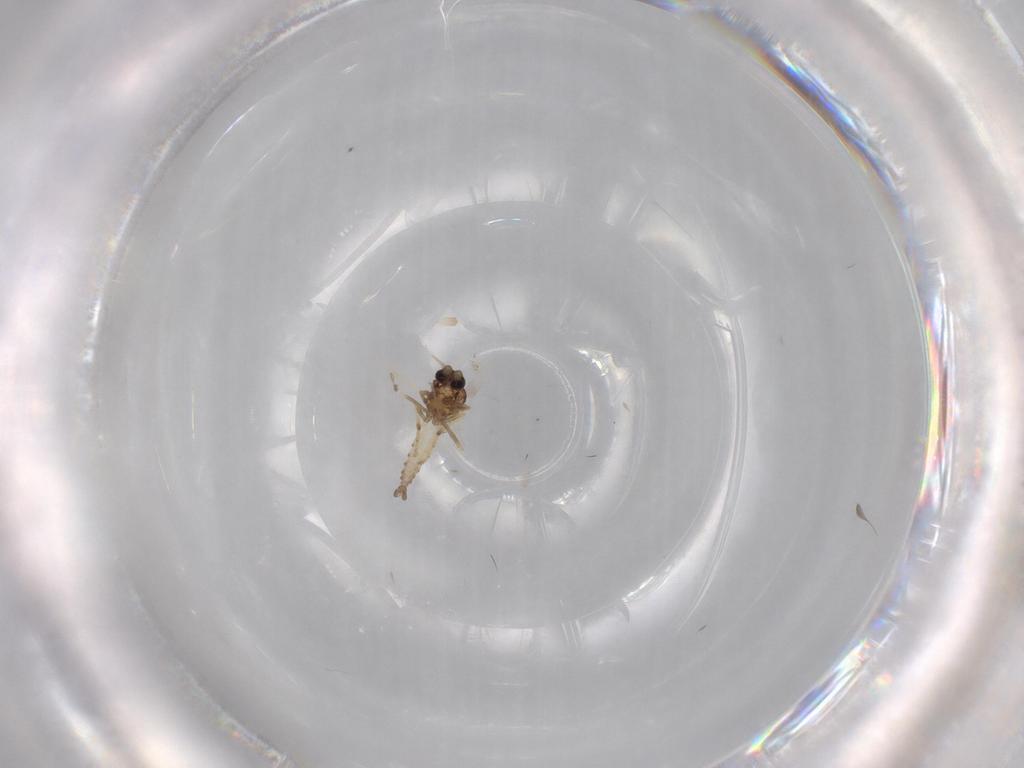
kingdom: Animalia
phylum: Arthropoda
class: Insecta
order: Diptera
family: Ceratopogonidae
